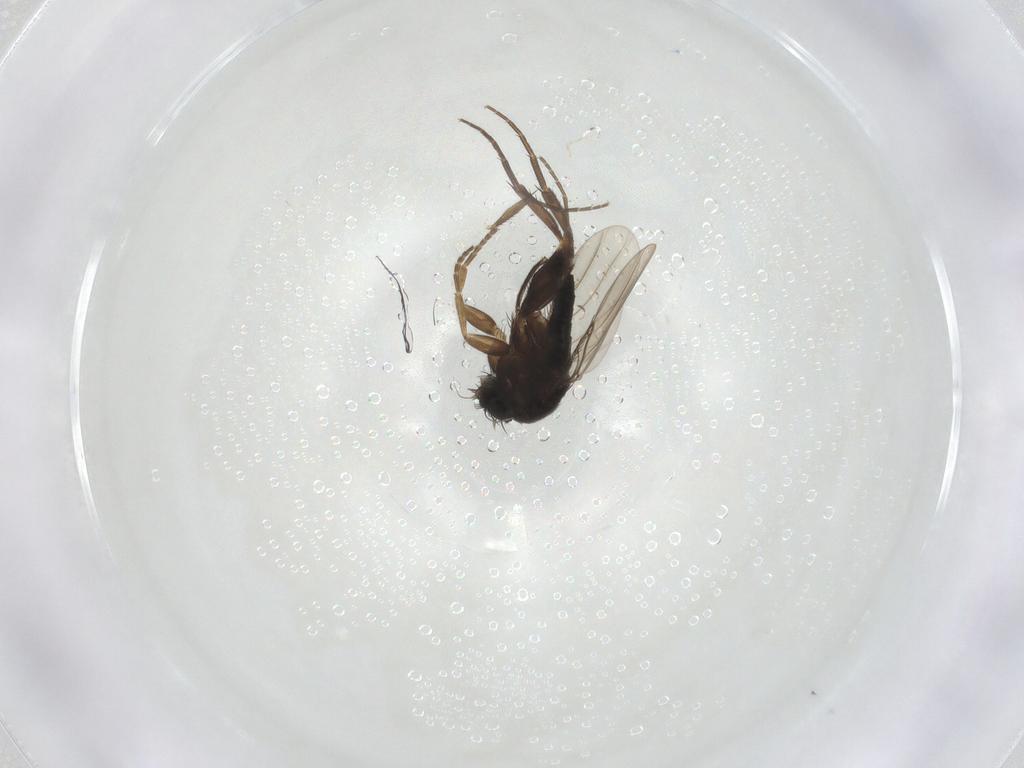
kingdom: Animalia
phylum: Arthropoda
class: Insecta
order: Diptera
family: Phoridae
